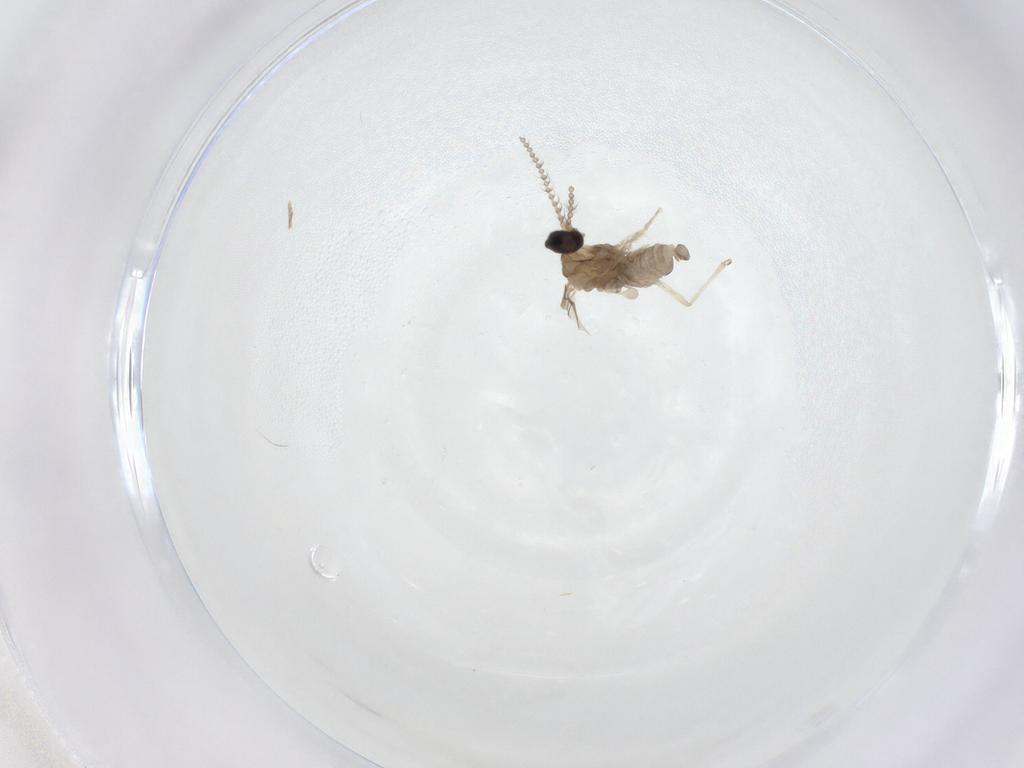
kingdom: Animalia
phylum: Arthropoda
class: Insecta
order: Diptera
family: Cecidomyiidae
